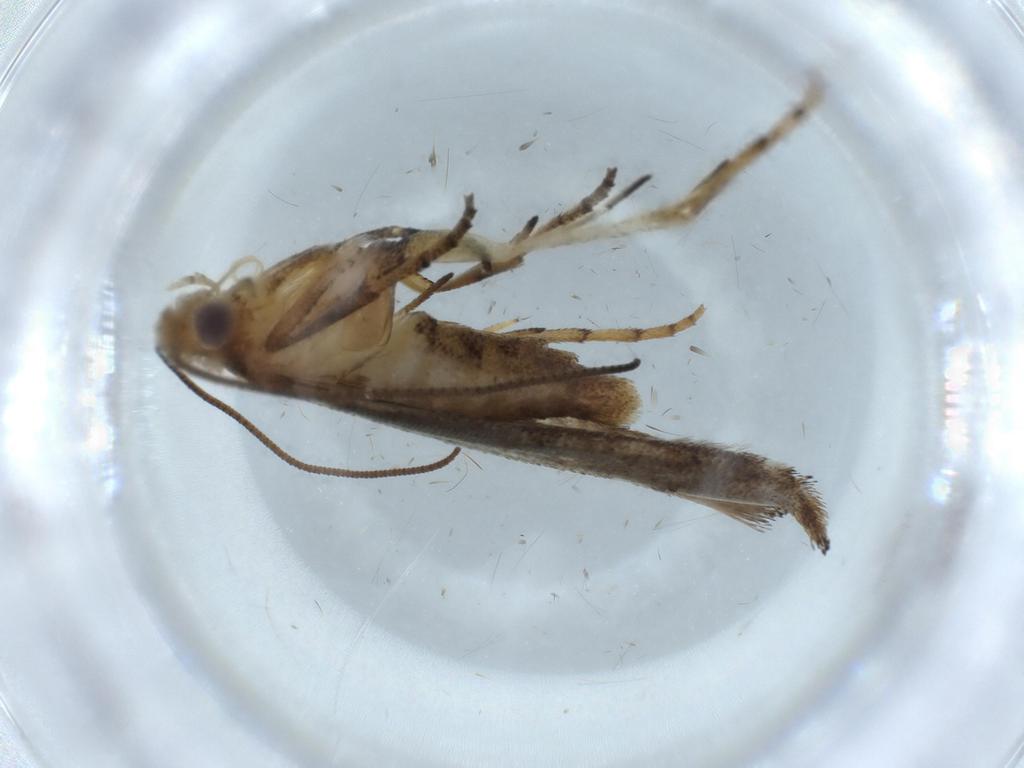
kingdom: Animalia
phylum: Arthropoda
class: Insecta
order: Lepidoptera
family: Yponomeutidae
